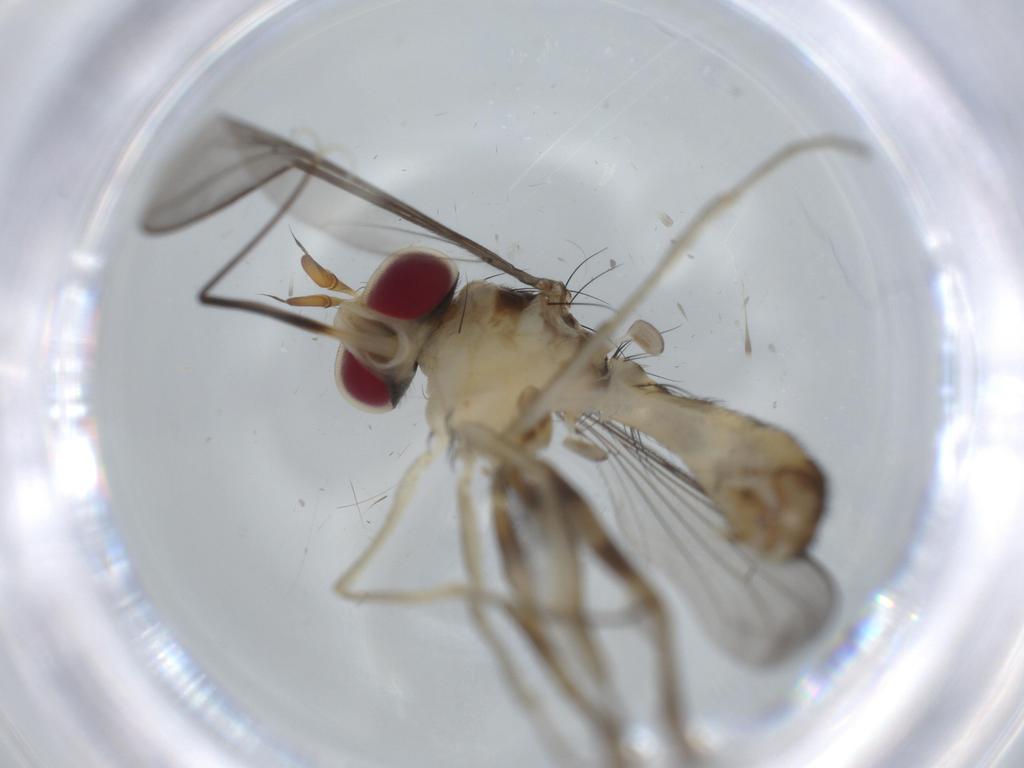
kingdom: Animalia
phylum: Arthropoda
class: Insecta
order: Diptera
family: Conopidae
